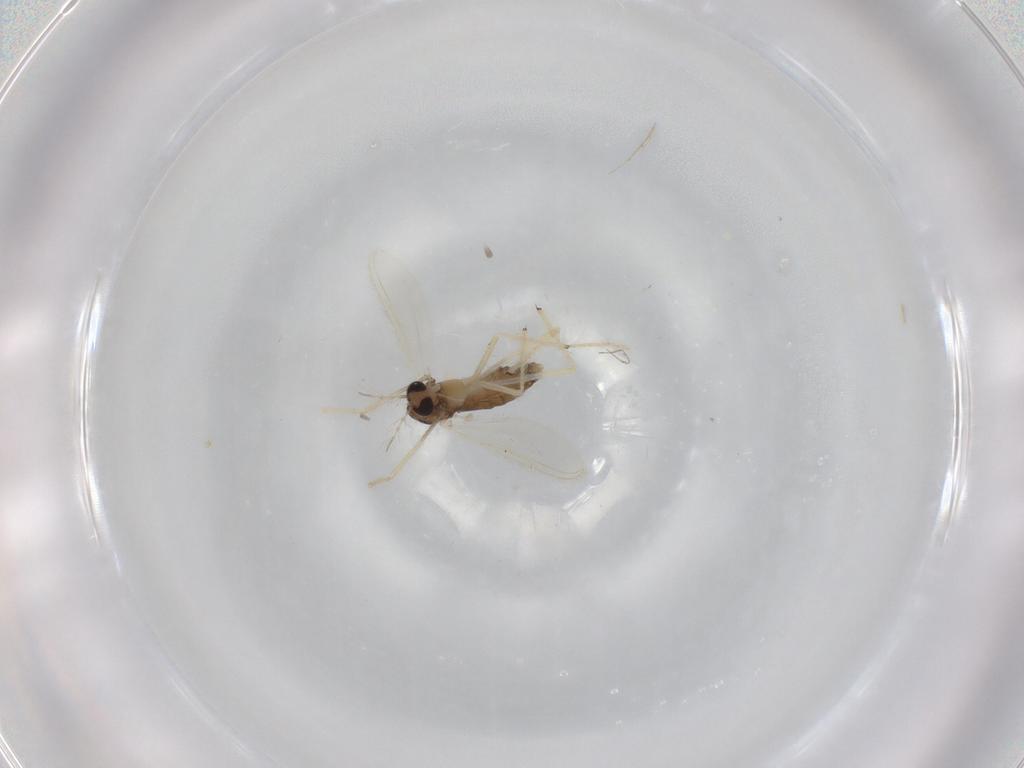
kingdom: Animalia
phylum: Arthropoda
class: Insecta
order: Diptera
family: Chironomidae
